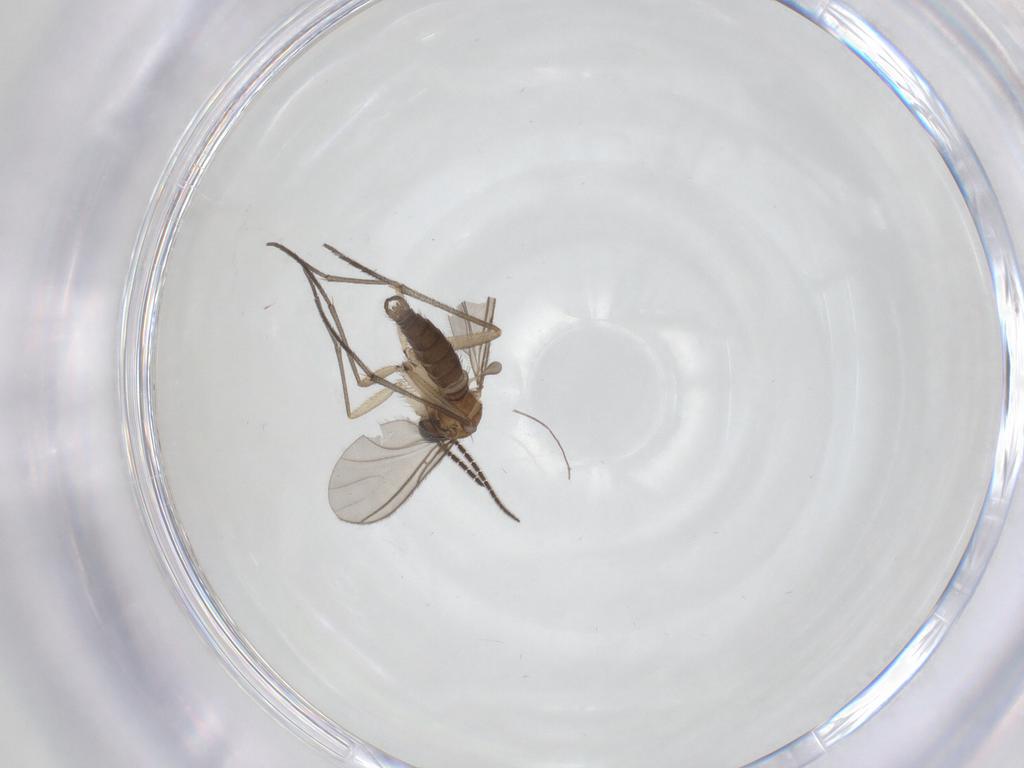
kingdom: Animalia
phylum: Arthropoda
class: Insecta
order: Diptera
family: Sciaridae
